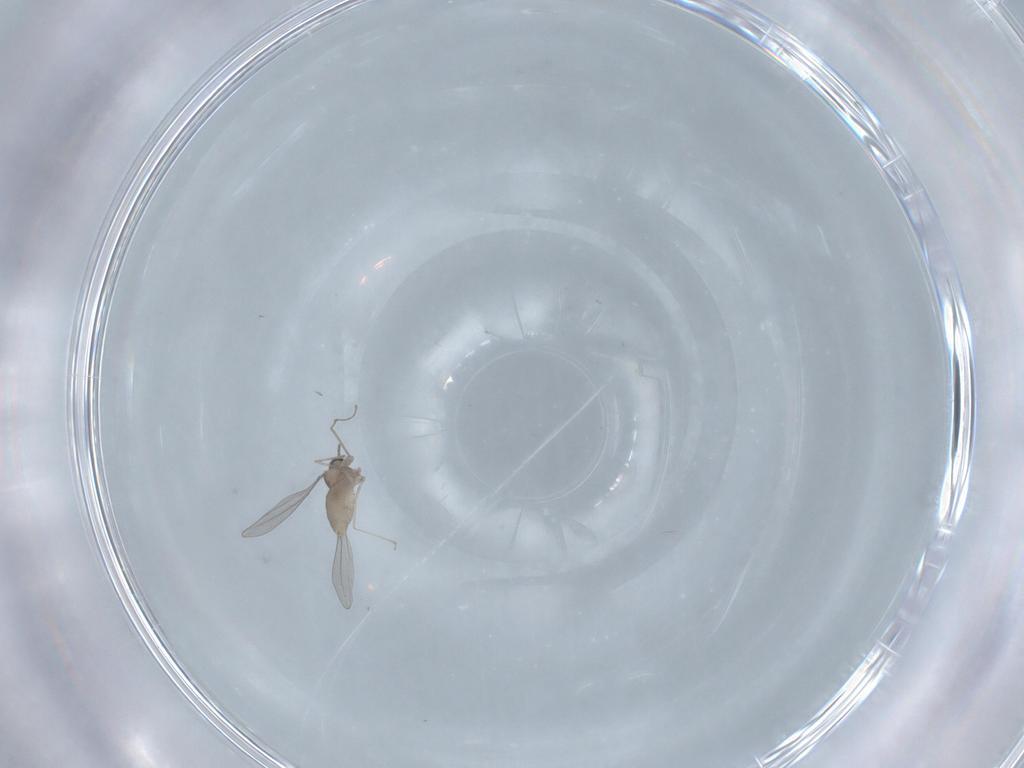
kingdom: Animalia
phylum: Arthropoda
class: Insecta
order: Diptera
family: Cecidomyiidae
